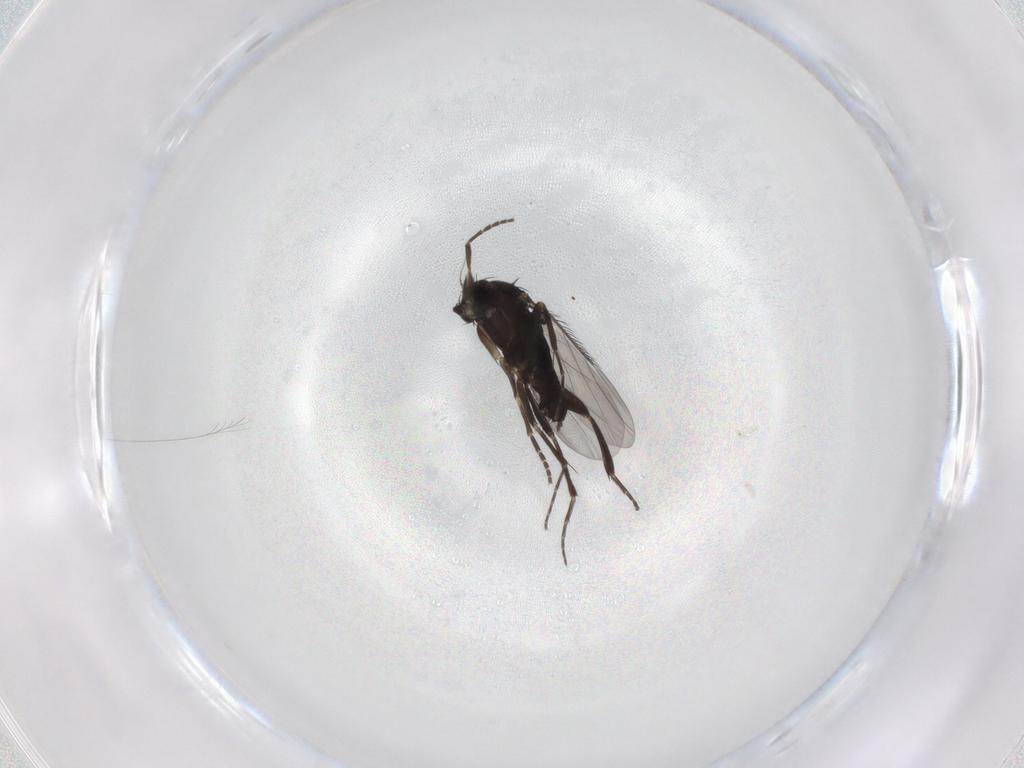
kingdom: Animalia
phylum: Arthropoda
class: Insecta
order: Diptera
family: Phoridae
